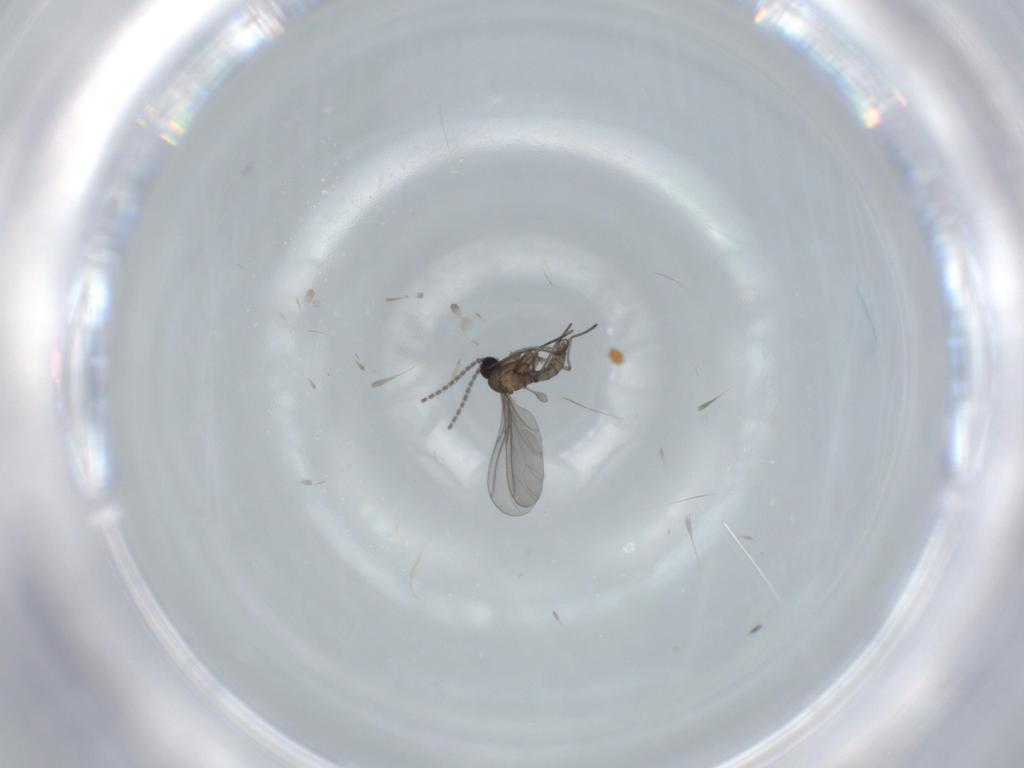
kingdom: Animalia
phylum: Arthropoda
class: Insecta
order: Diptera
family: Sciaridae
